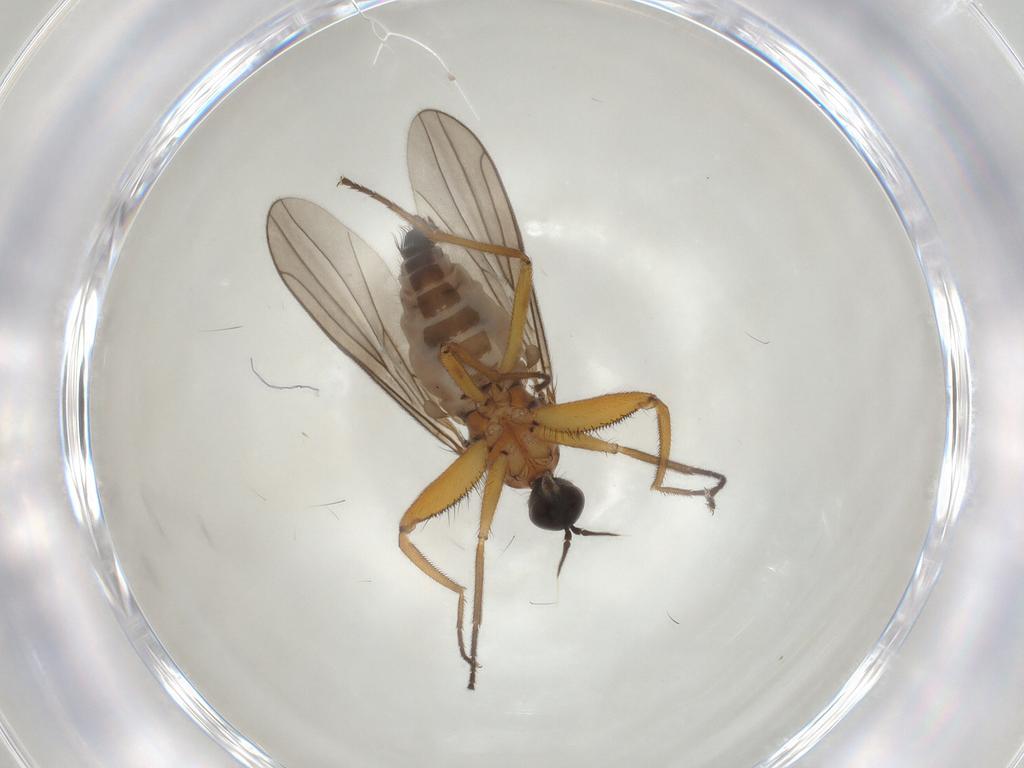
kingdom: Animalia
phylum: Arthropoda
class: Insecta
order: Diptera
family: Hybotidae
